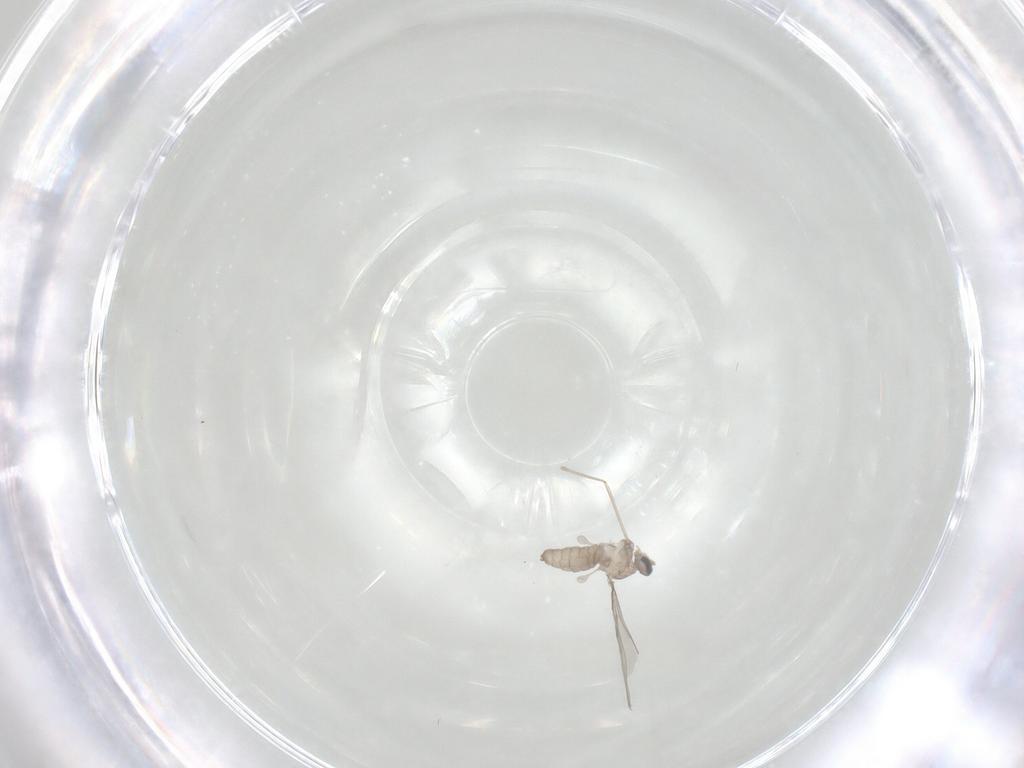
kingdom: Animalia
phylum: Arthropoda
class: Insecta
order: Diptera
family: Cecidomyiidae
